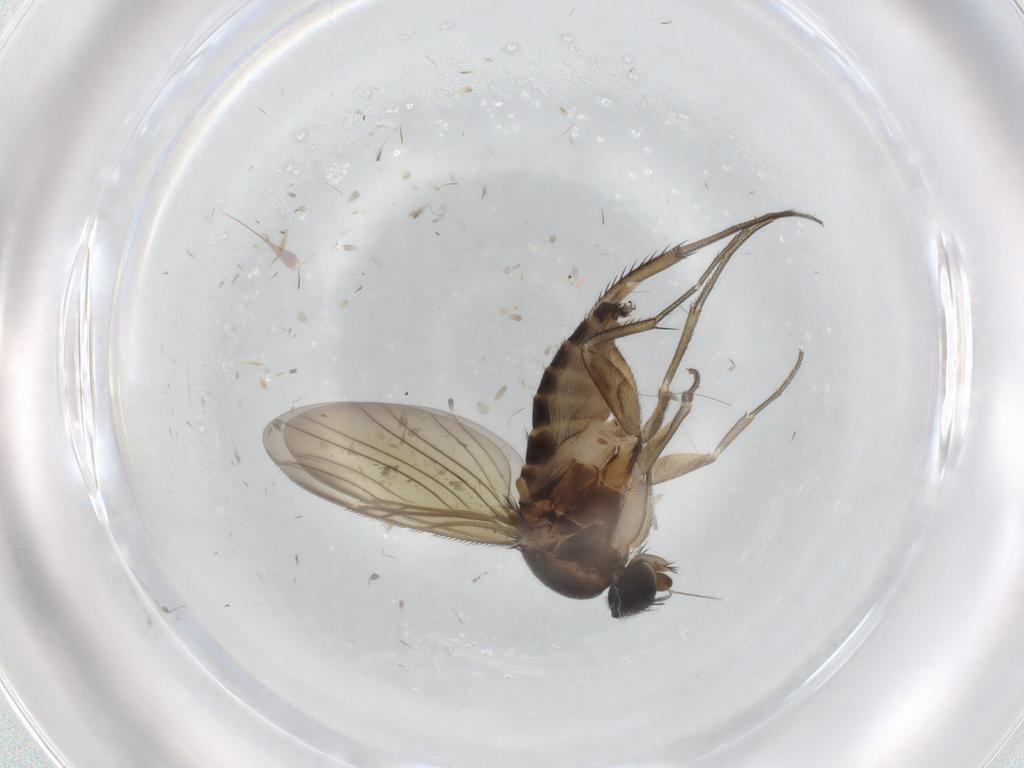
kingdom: Animalia
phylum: Arthropoda
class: Insecta
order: Diptera
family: Phoridae
